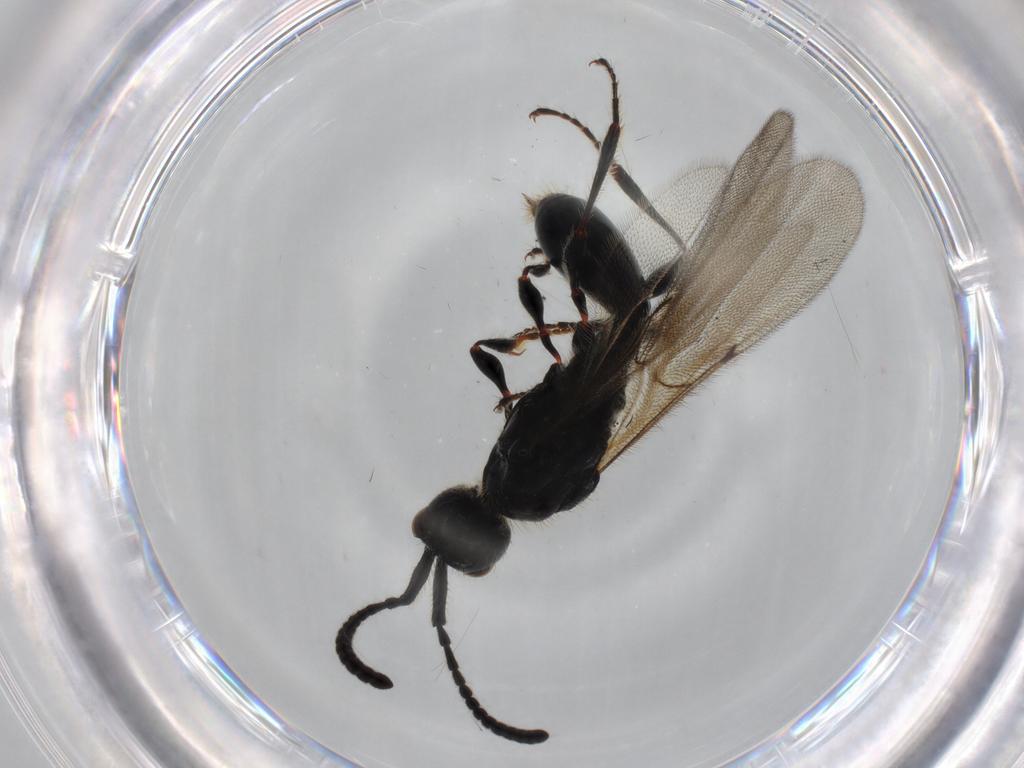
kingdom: Animalia
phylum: Arthropoda
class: Insecta
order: Hymenoptera
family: Diapriidae
